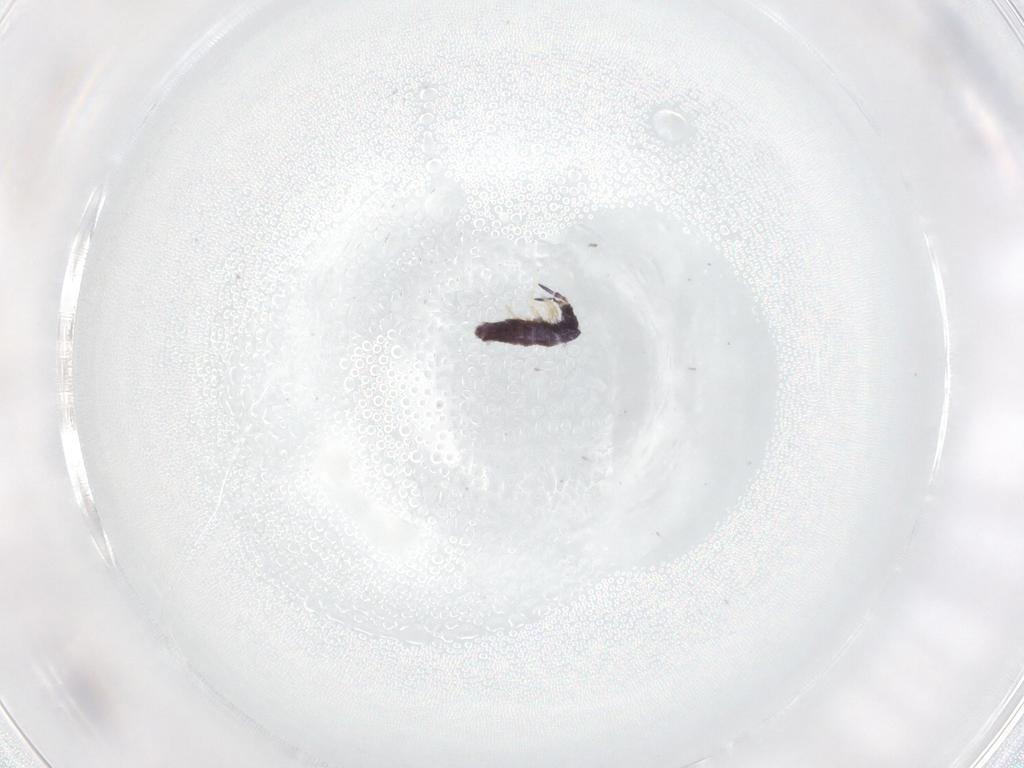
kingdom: Animalia
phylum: Arthropoda
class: Collembola
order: Entomobryomorpha
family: Entomobryidae
